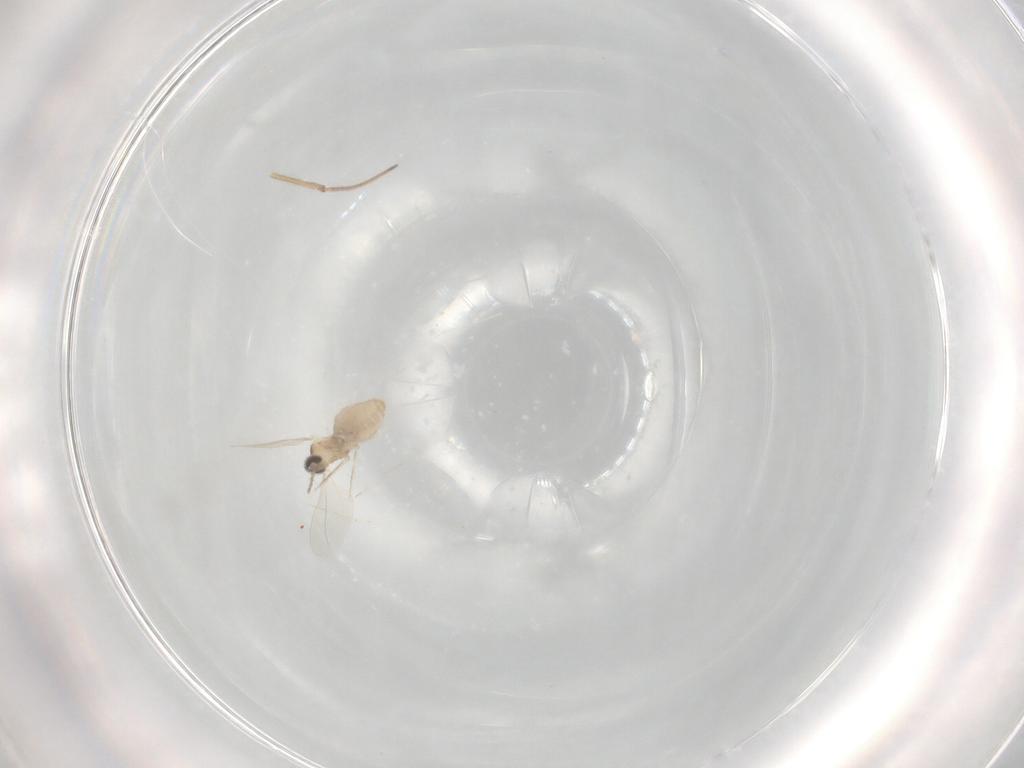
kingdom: Animalia
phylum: Arthropoda
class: Insecta
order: Diptera
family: Cecidomyiidae
